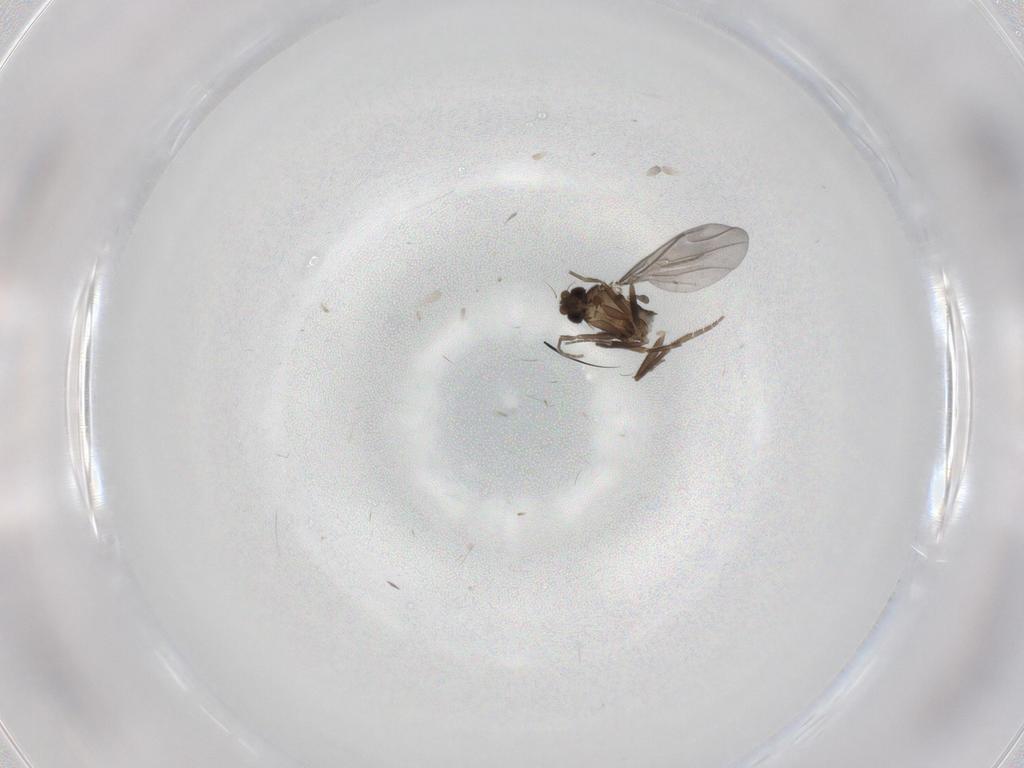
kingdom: Animalia
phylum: Arthropoda
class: Insecta
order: Diptera
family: Phoridae
